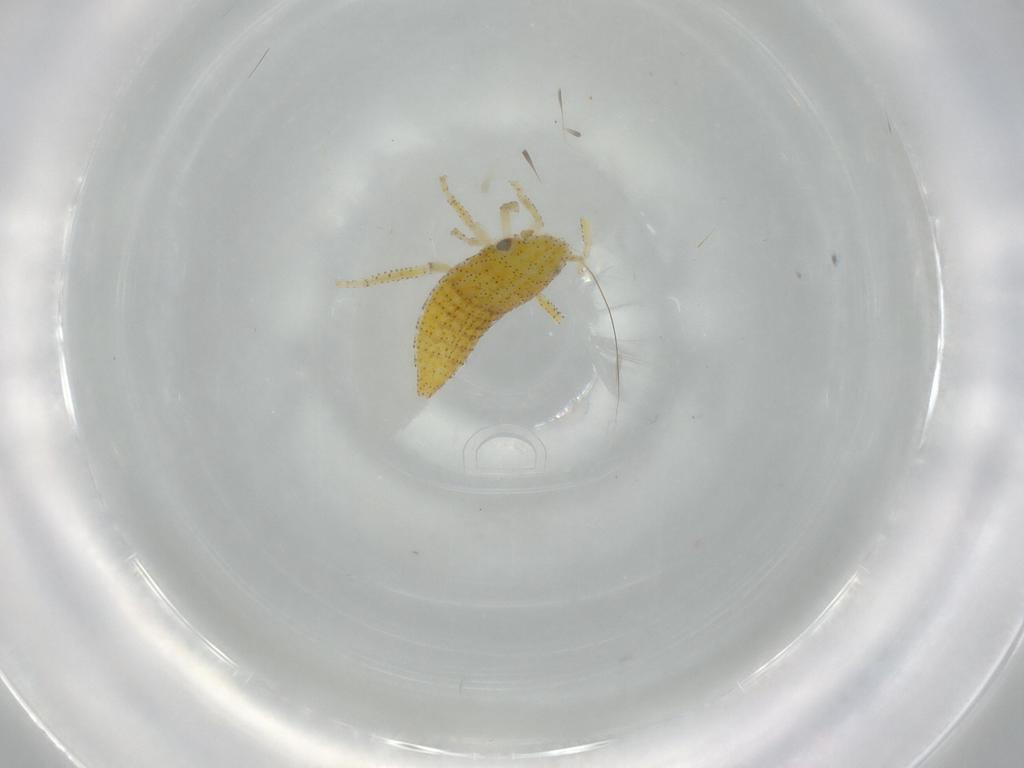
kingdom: Animalia
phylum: Arthropoda
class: Insecta
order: Hemiptera
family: Cicadellidae
